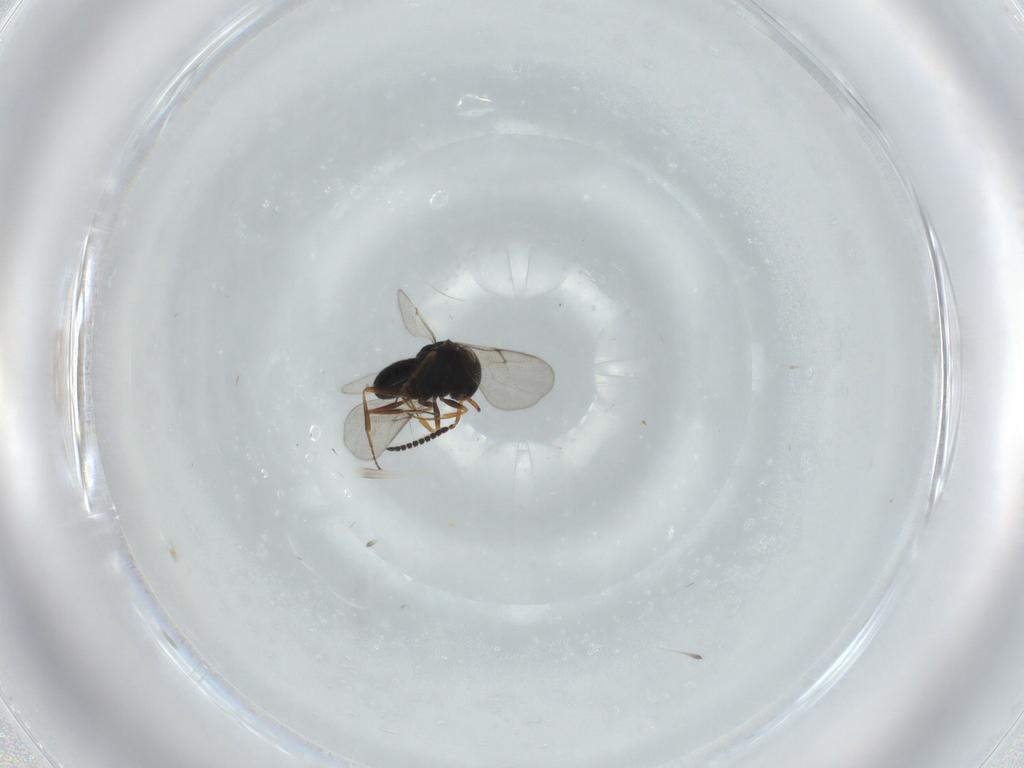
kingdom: Animalia
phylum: Arthropoda
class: Insecta
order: Hymenoptera
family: Scelionidae
